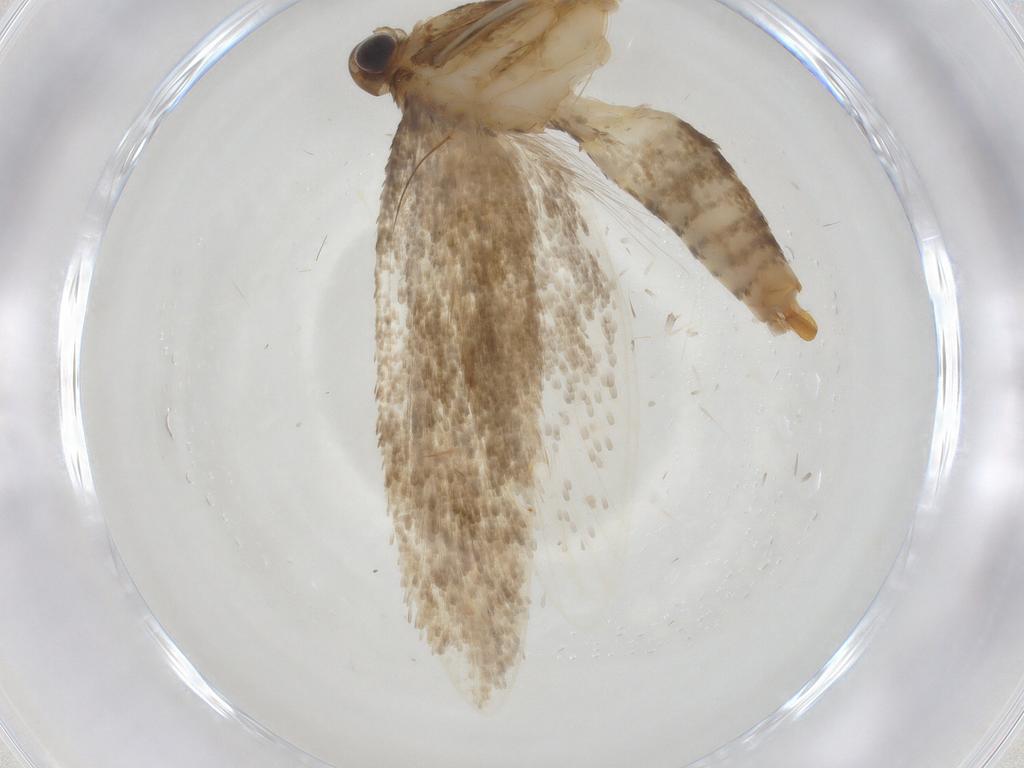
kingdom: Animalia
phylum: Arthropoda
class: Insecta
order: Lepidoptera
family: Tineidae
